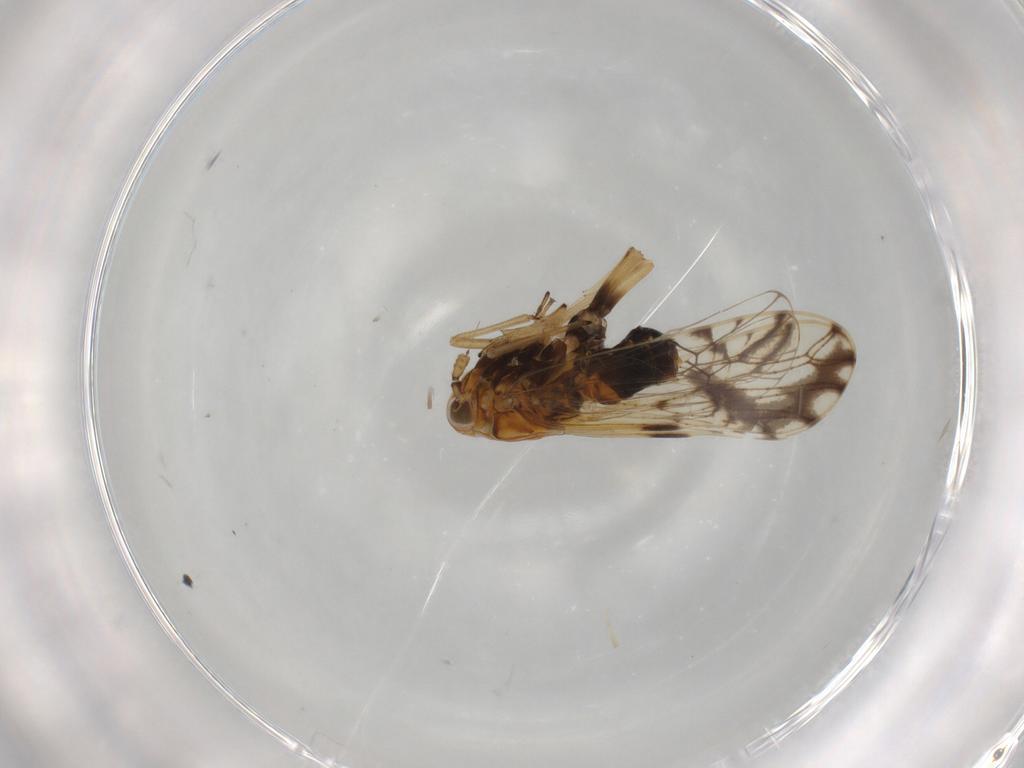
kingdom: Animalia
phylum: Arthropoda
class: Insecta
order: Hemiptera
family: Delphacidae
